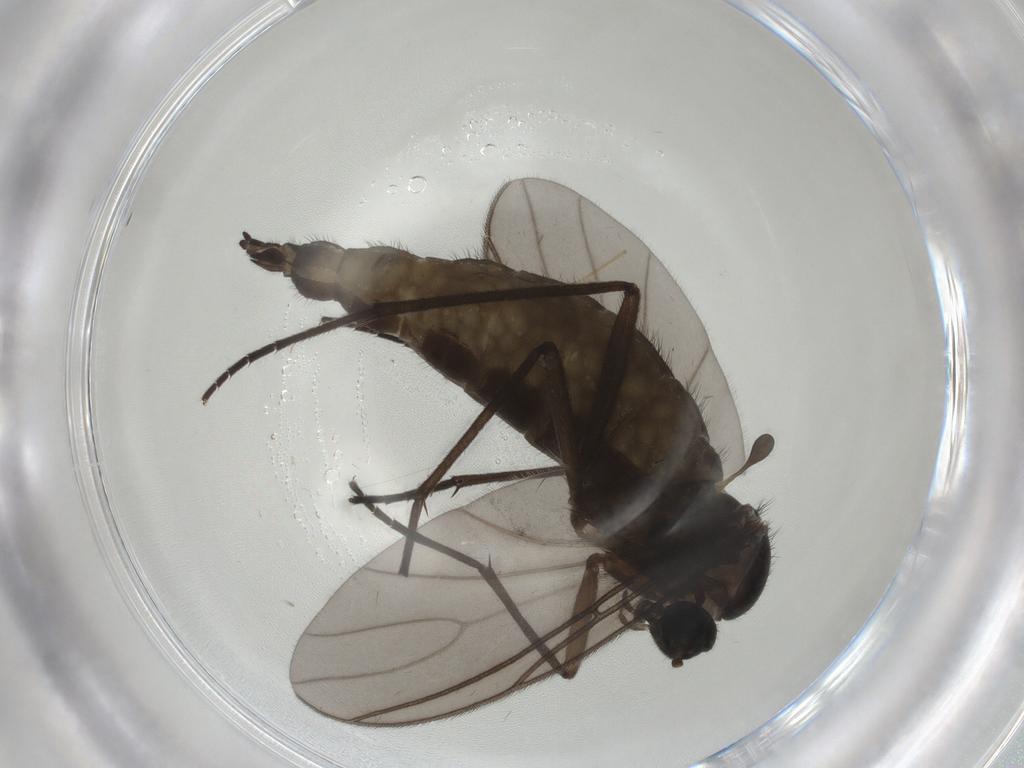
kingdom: Animalia
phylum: Arthropoda
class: Insecta
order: Diptera
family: Sciaridae
